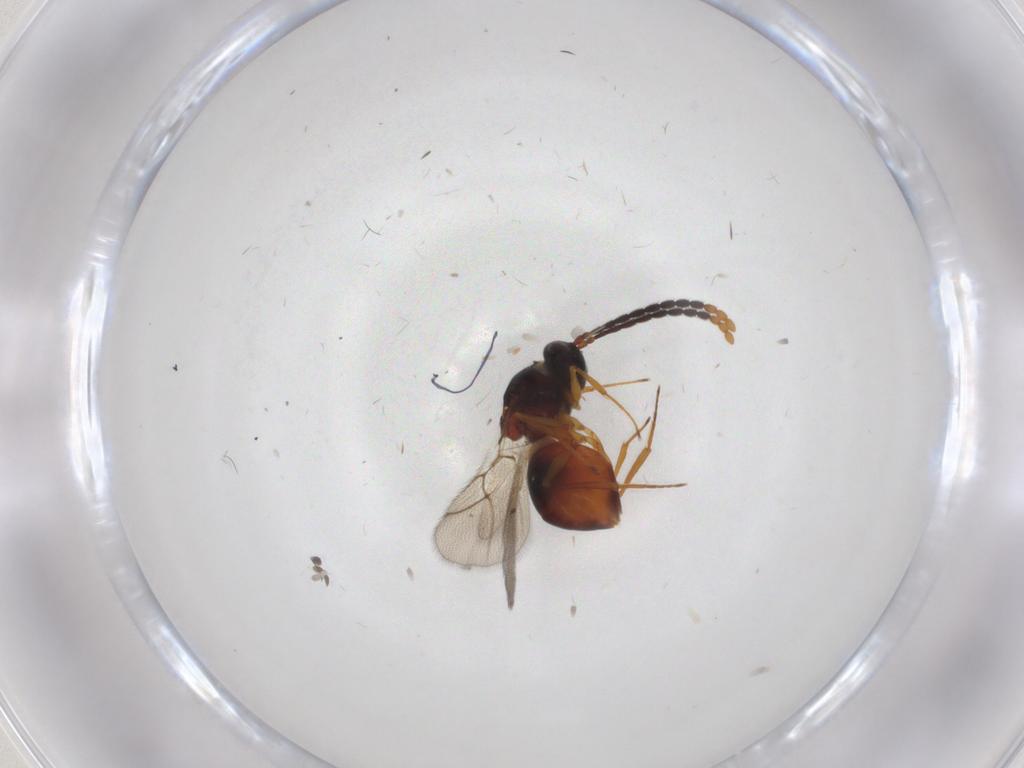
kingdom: Animalia
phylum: Arthropoda
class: Insecta
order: Hymenoptera
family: Figitidae
